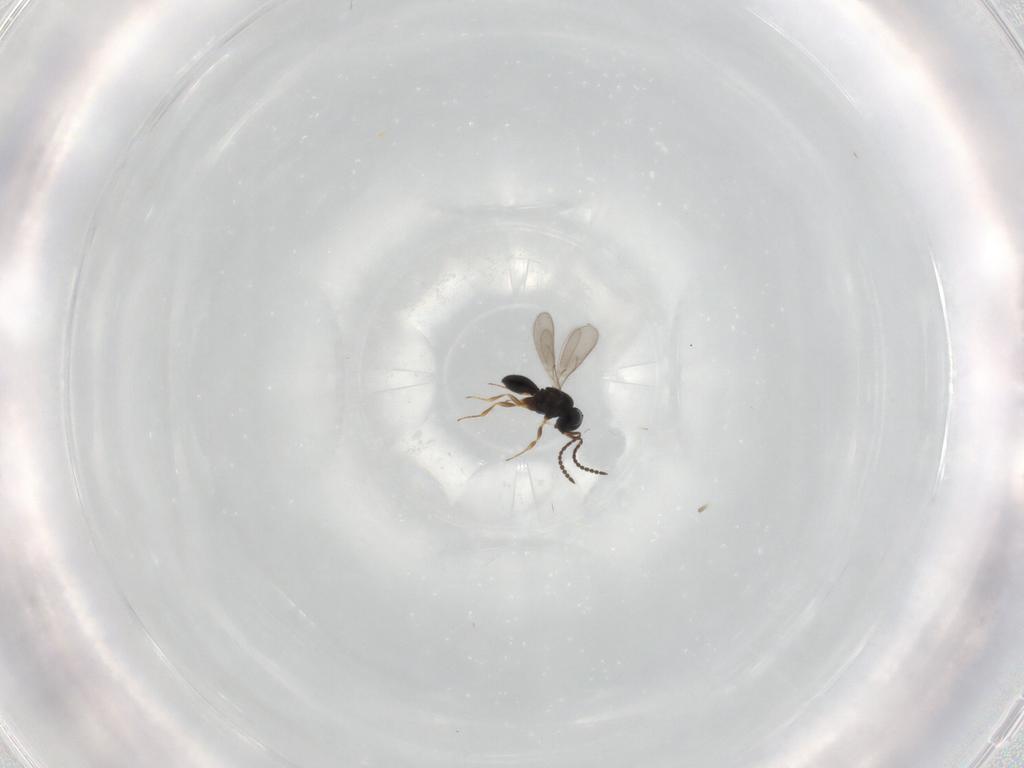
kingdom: Animalia
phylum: Arthropoda
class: Insecta
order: Hymenoptera
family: Scelionidae
